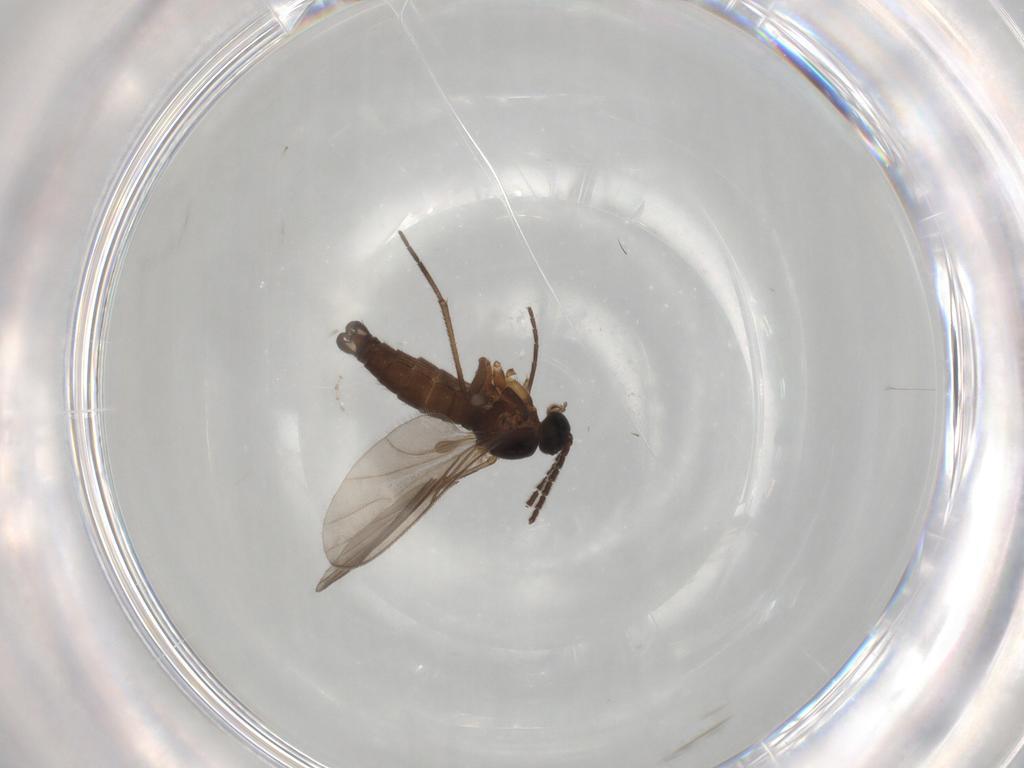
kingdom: Animalia
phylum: Arthropoda
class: Insecta
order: Diptera
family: Sciaridae
